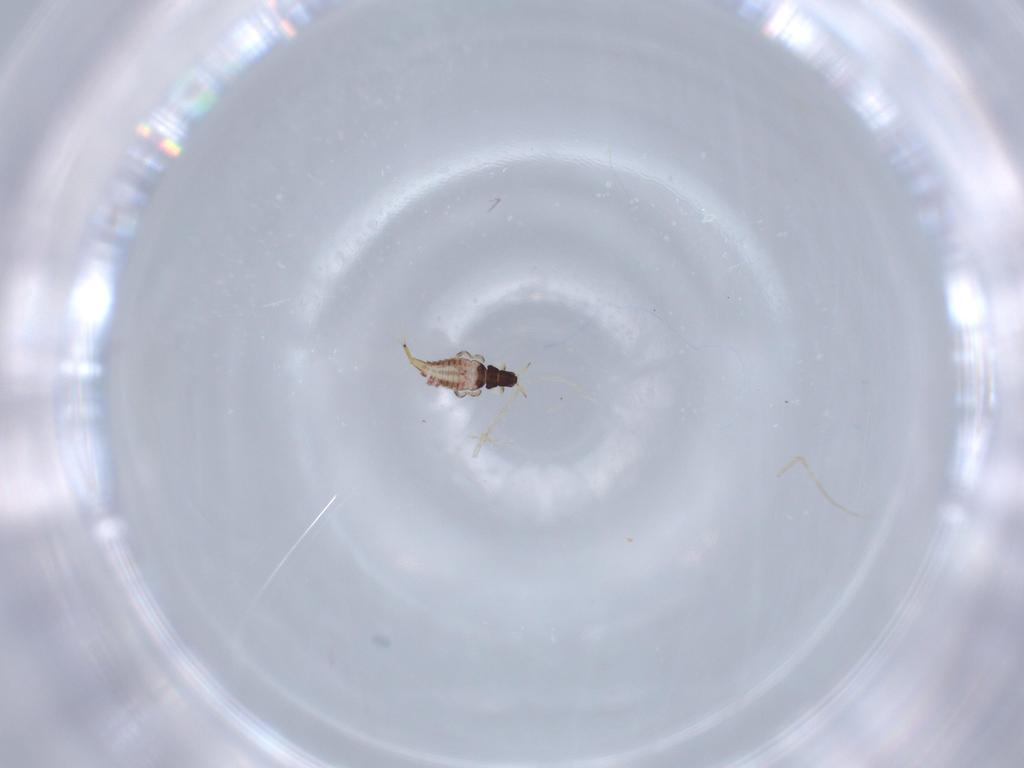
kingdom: Animalia
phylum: Arthropoda
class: Insecta
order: Thysanoptera
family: Phlaeothripidae
